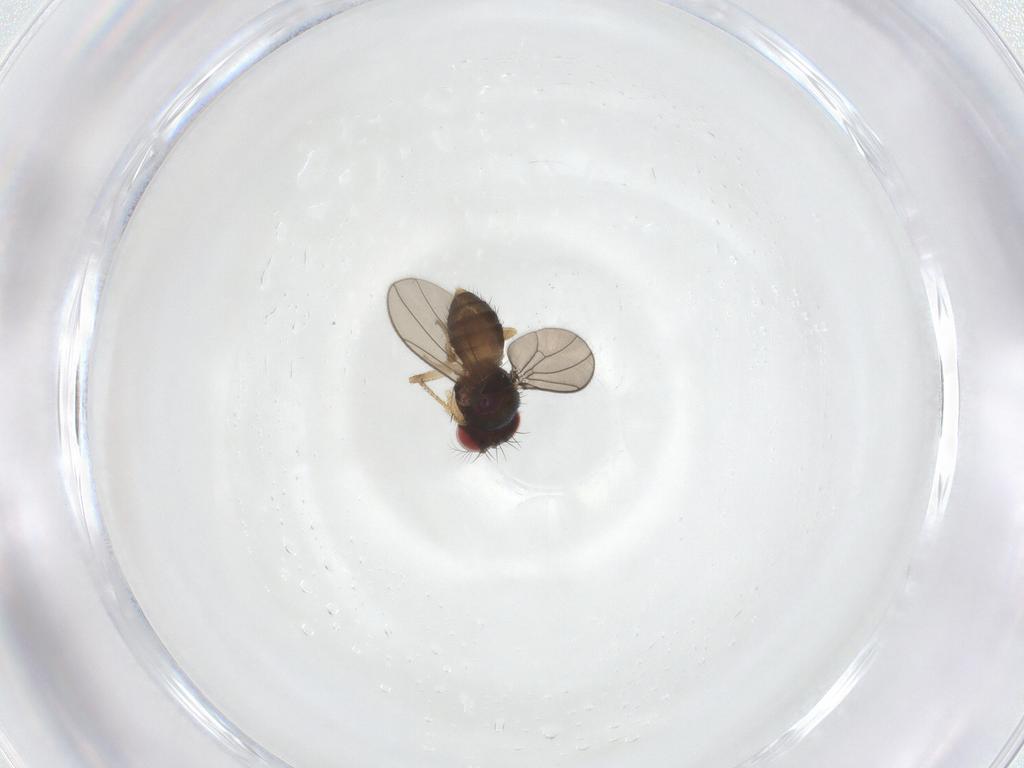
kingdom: Animalia
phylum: Arthropoda
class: Insecta
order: Diptera
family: Drosophilidae
